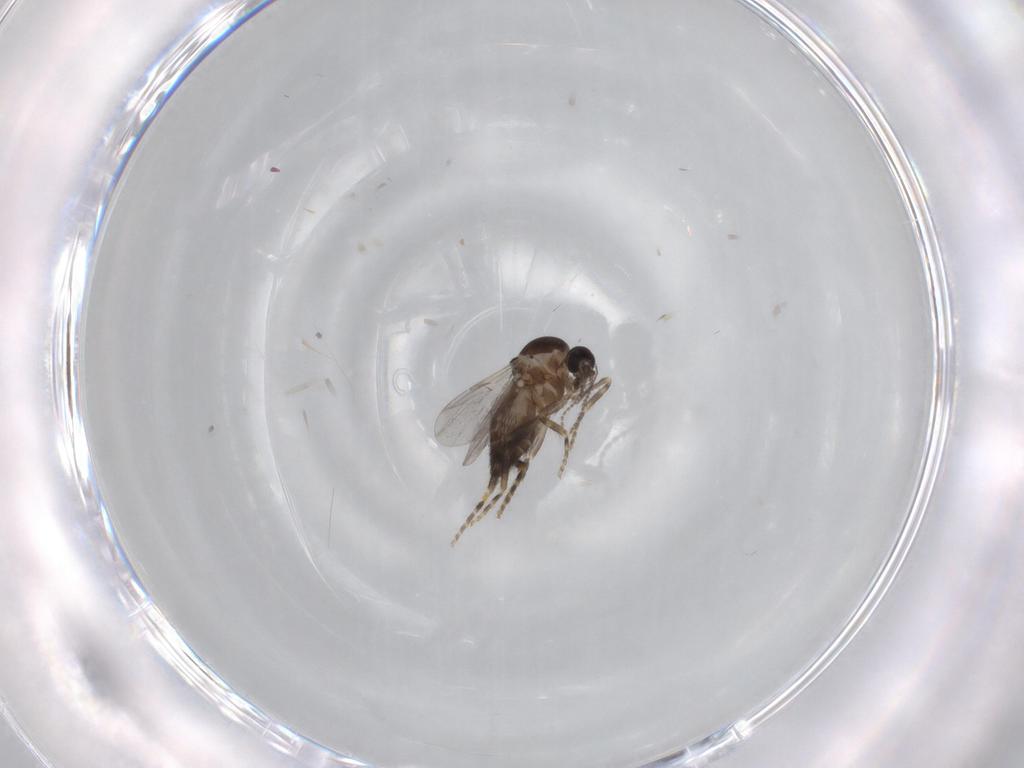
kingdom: Animalia
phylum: Arthropoda
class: Insecta
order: Diptera
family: Ceratopogonidae
